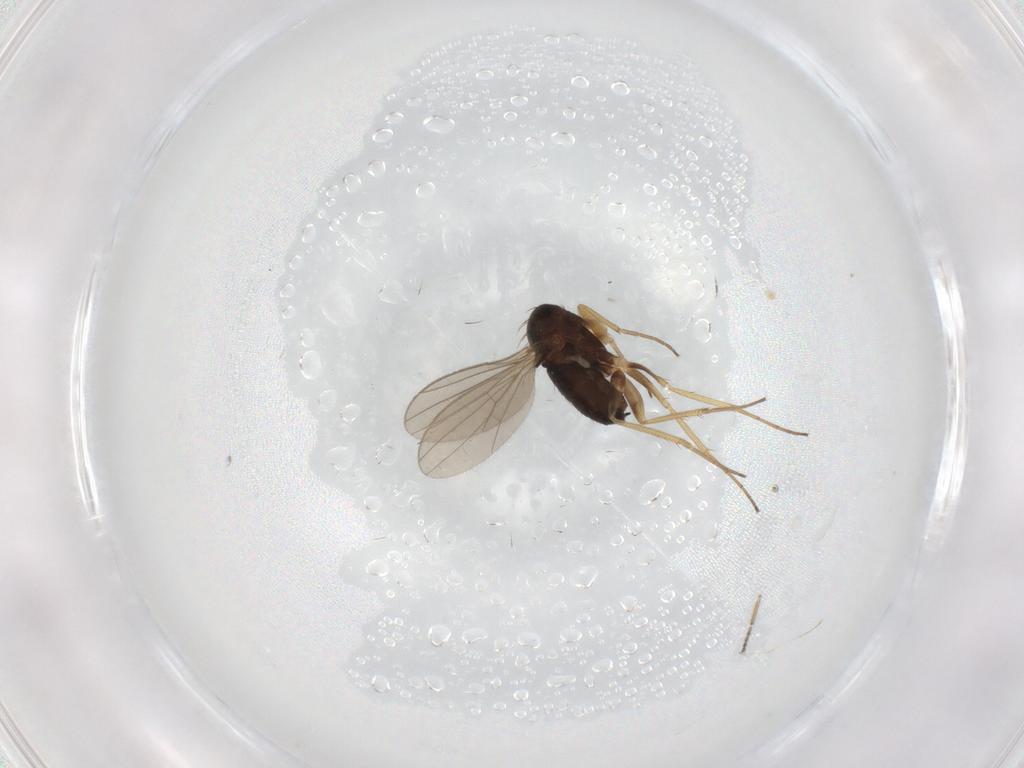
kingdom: Animalia
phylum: Arthropoda
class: Insecta
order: Diptera
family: Dolichopodidae
